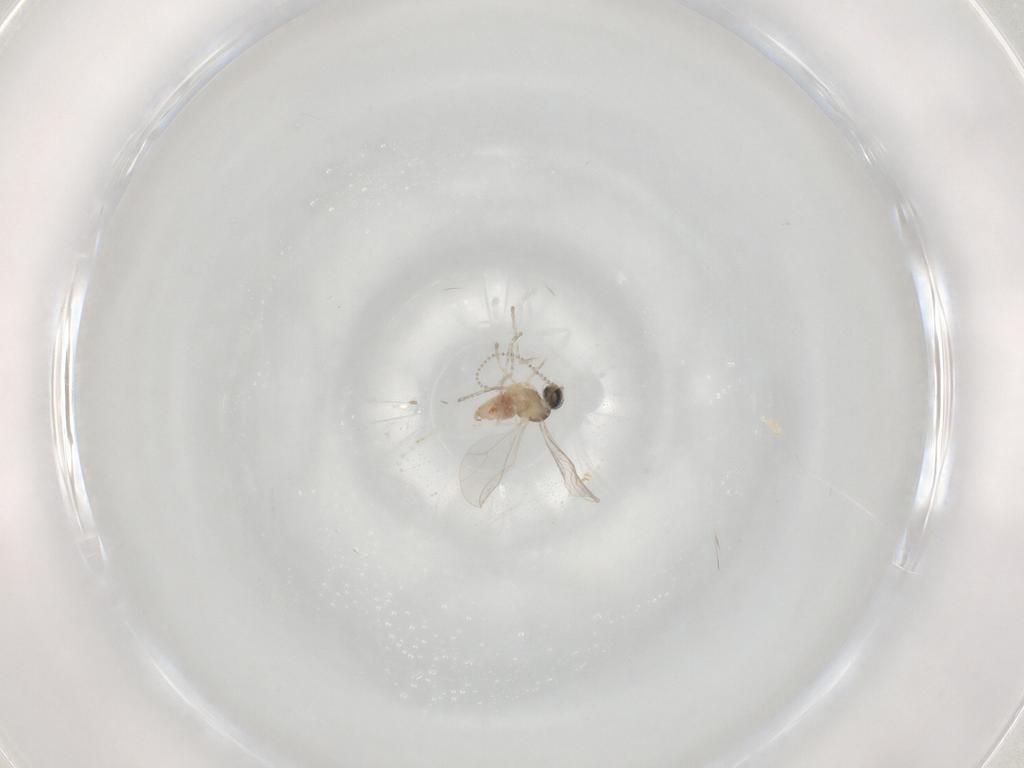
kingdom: Animalia
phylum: Arthropoda
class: Insecta
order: Diptera
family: Cecidomyiidae
